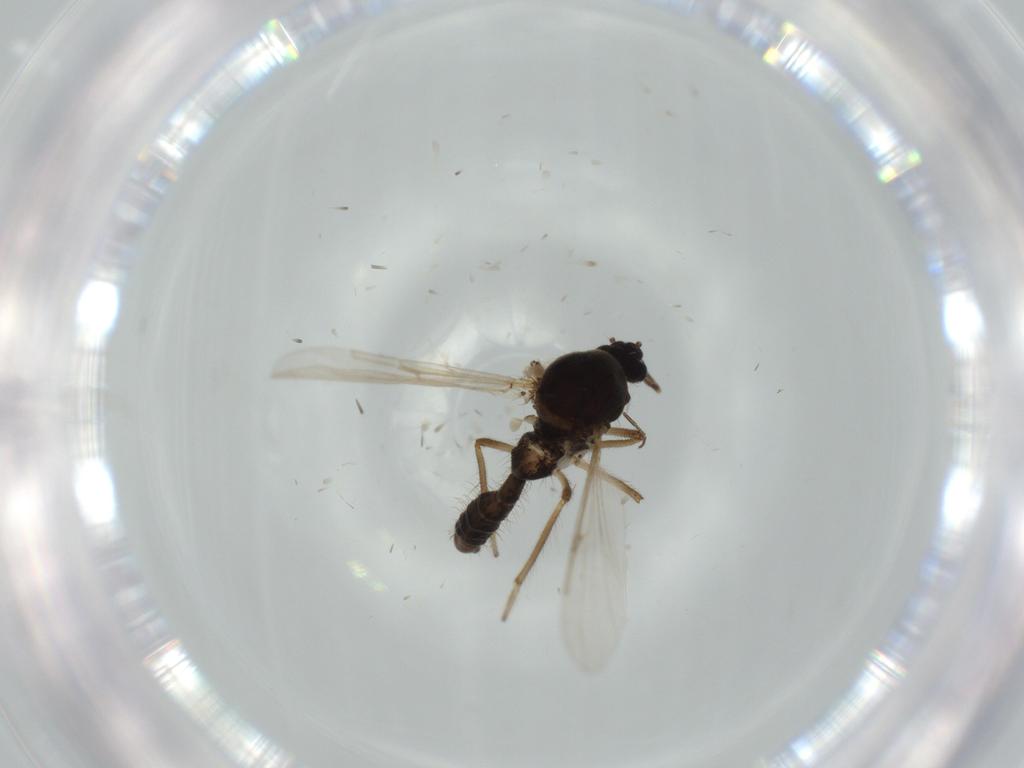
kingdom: Animalia
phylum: Arthropoda
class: Insecta
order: Diptera
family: Ceratopogonidae
